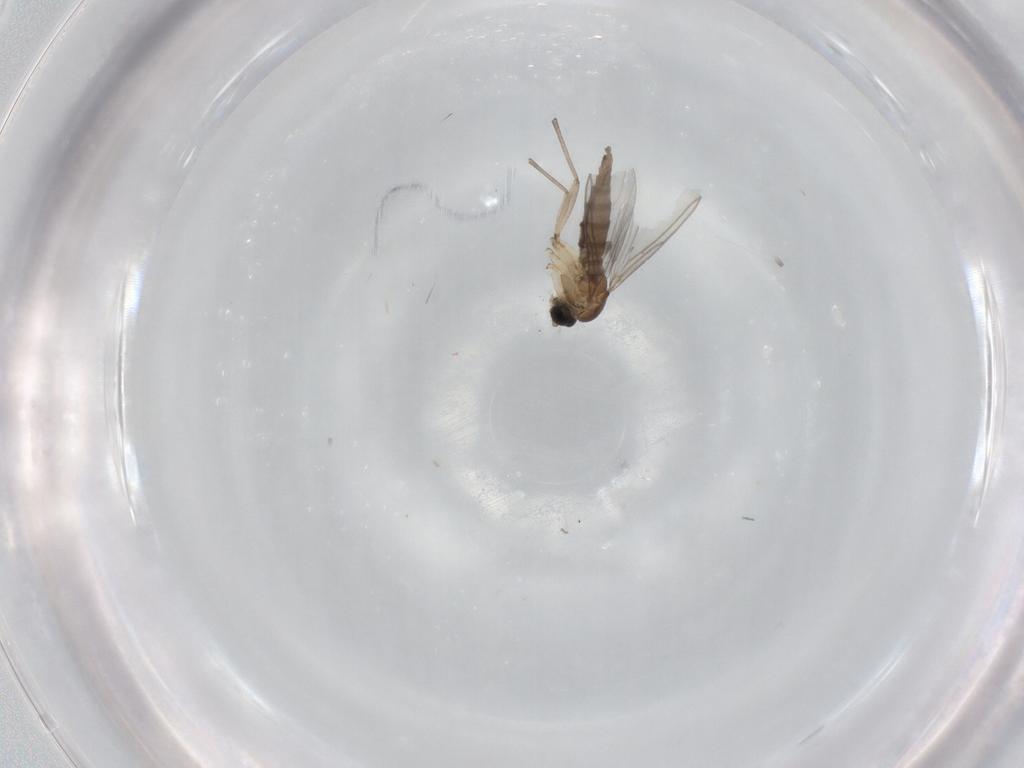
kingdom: Animalia
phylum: Arthropoda
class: Insecta
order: Diptera
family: Sciaridae
